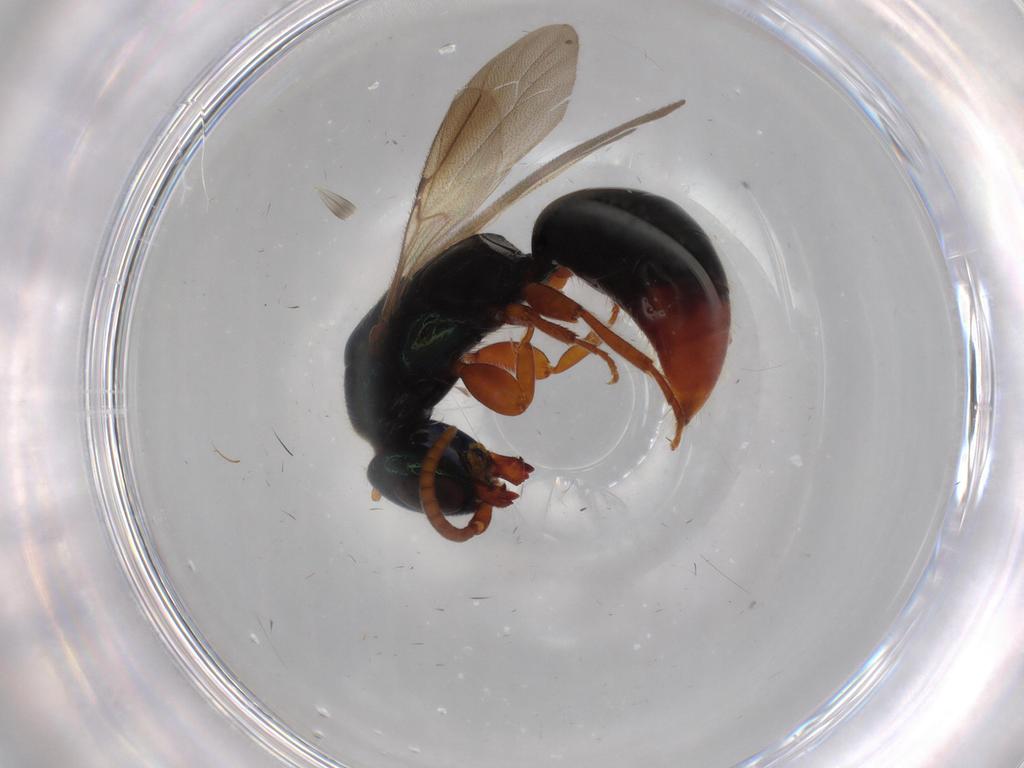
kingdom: Animalia
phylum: Arthropoda
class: Insecta
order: Hymenoptera
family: Bethylidae
